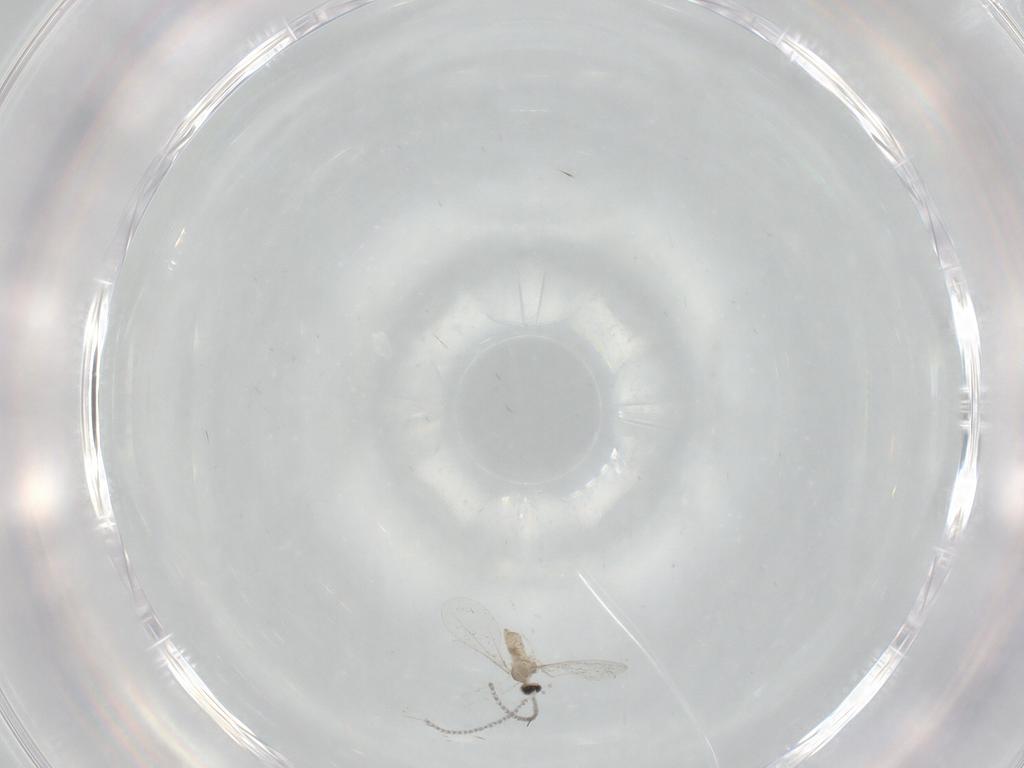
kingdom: Animalia
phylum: Arthropoda
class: Insecta
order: Diptera
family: Cecidomyiidae
